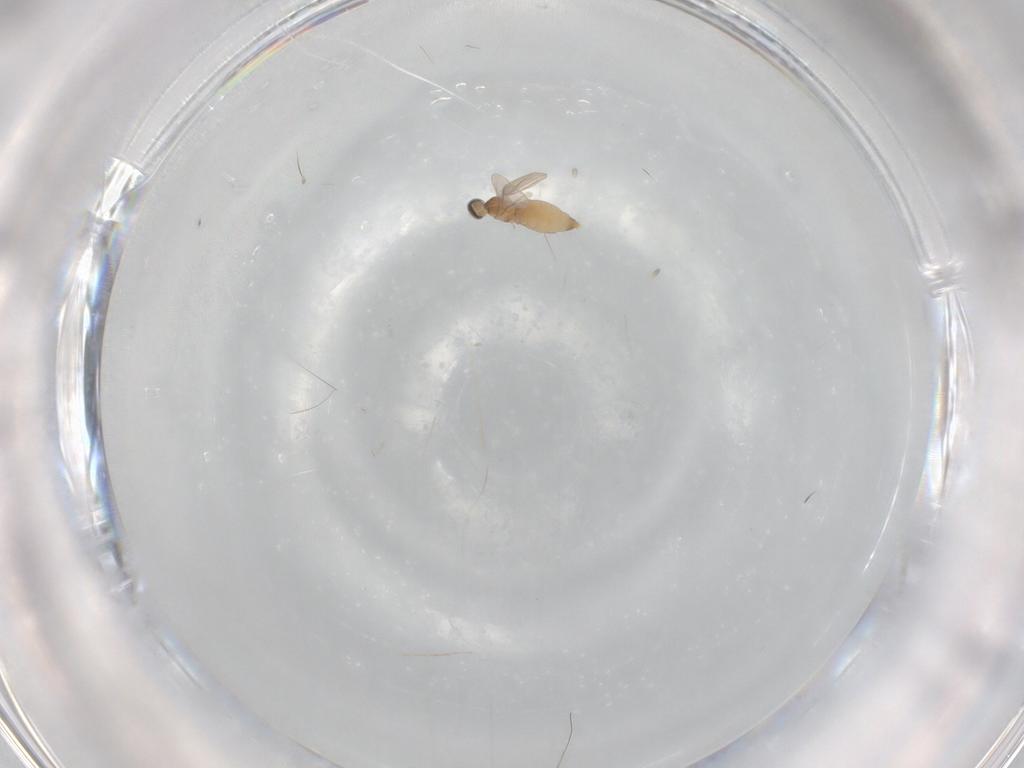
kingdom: Animalia
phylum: Arthropoda
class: Insecta
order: Diptera
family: Cecidomyiidae
